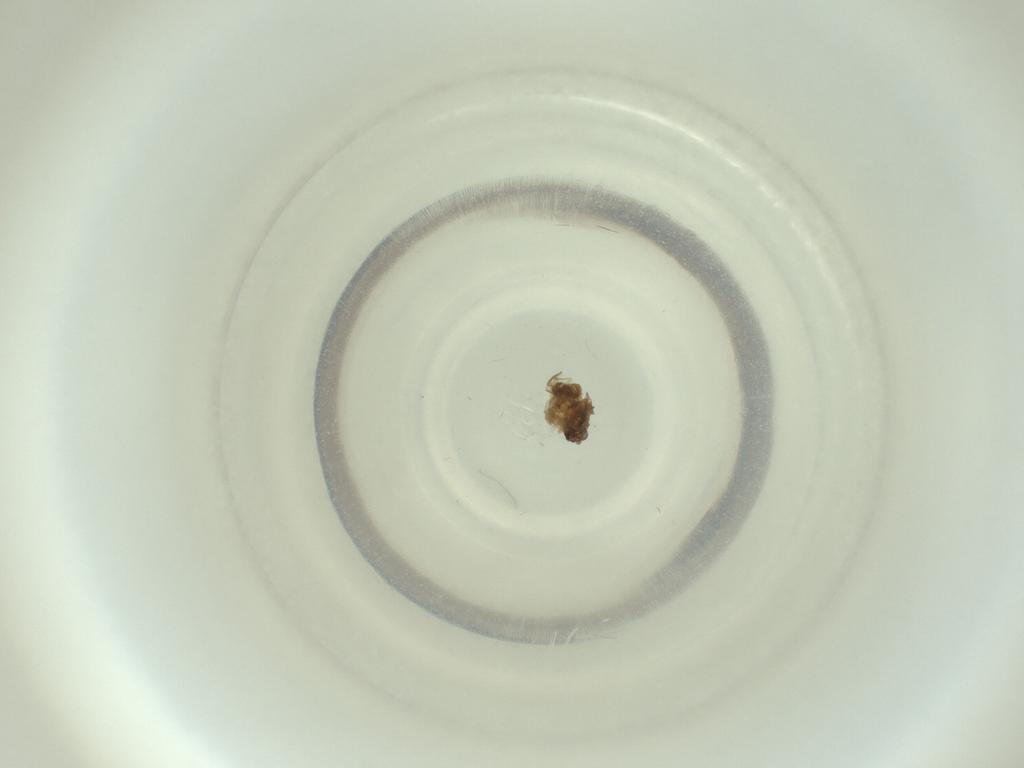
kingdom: Animalia
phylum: Arthropoda
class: Insecta
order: Diptera
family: Cecidomyiidae
